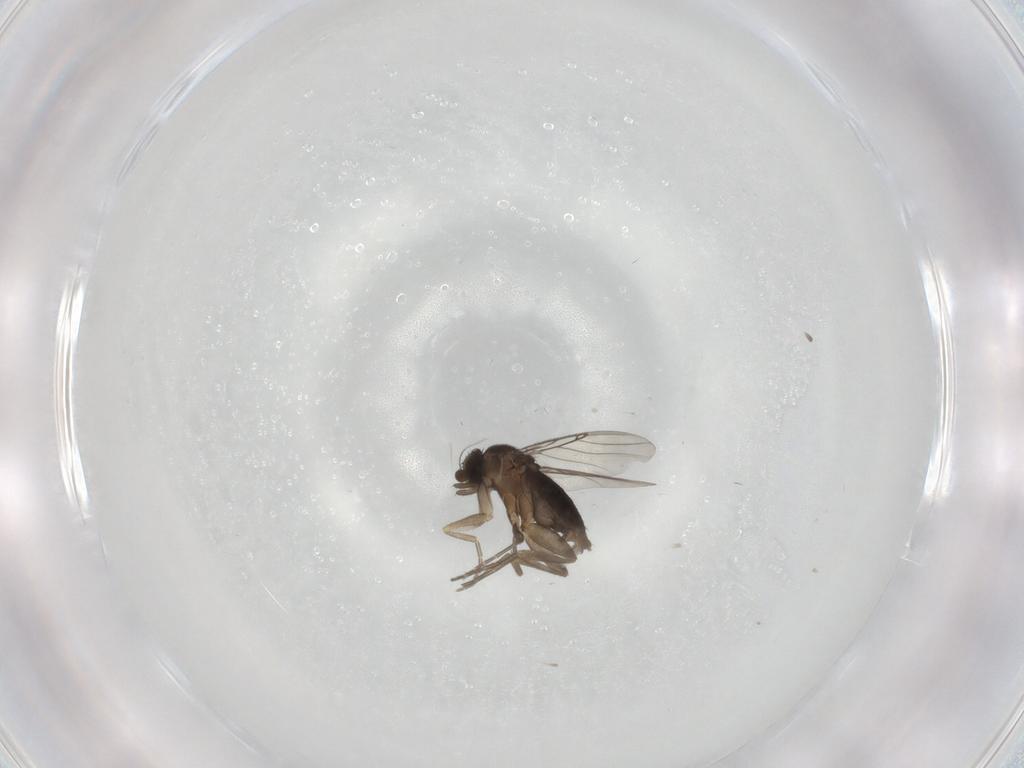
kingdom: Animalia
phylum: Arthropoda
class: Insecta
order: Diptera
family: Phoridae
